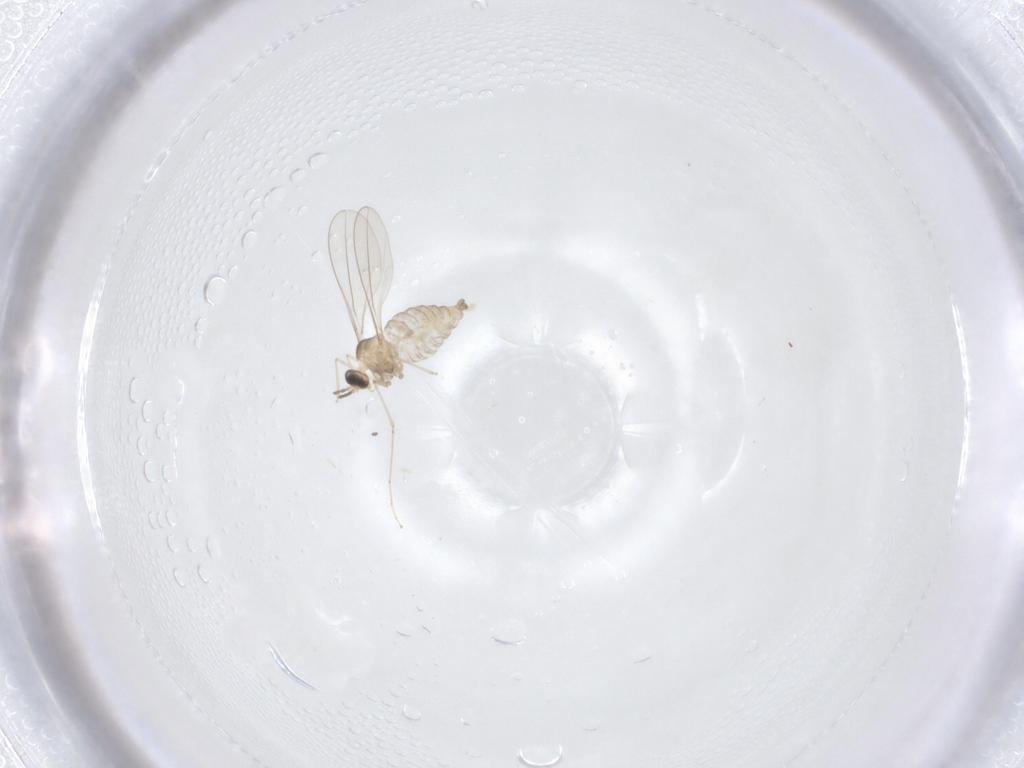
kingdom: Animalia
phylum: Arthropoda
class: Insecta
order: Diptera
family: Cecidomyiidae
